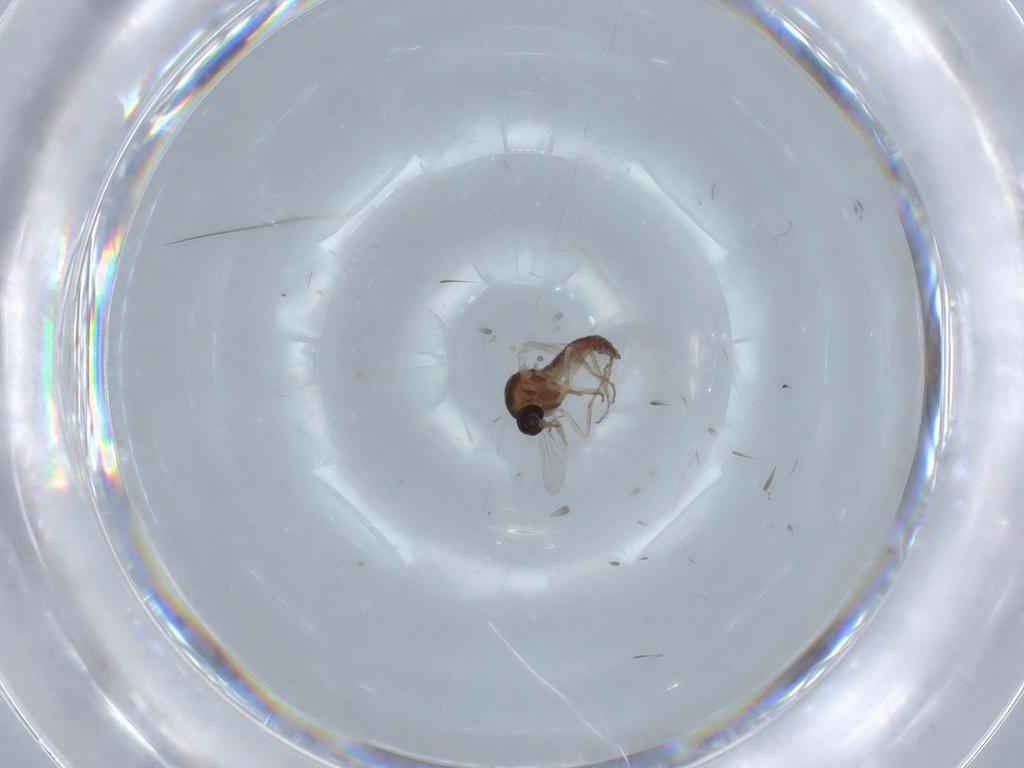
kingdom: Animalia
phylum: Arthropoda
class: Insecta
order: Diptera
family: Ceratopogonidae
